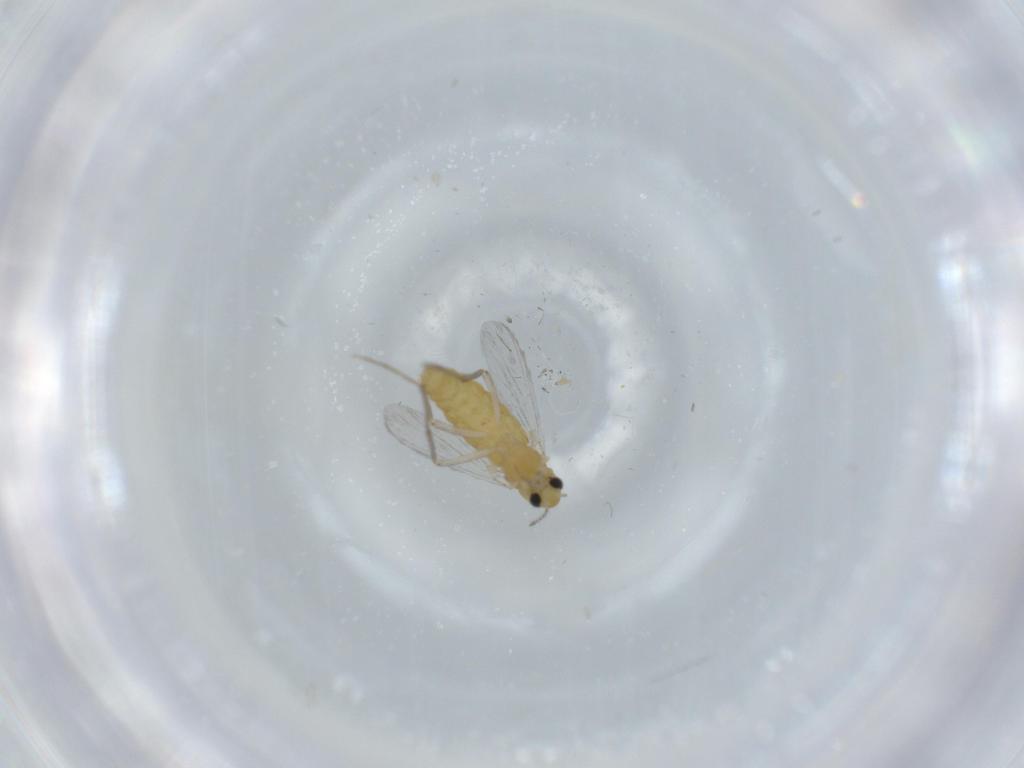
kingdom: Animalia
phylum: Arthropoda
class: Insecta
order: Diptera
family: Chironomidae
